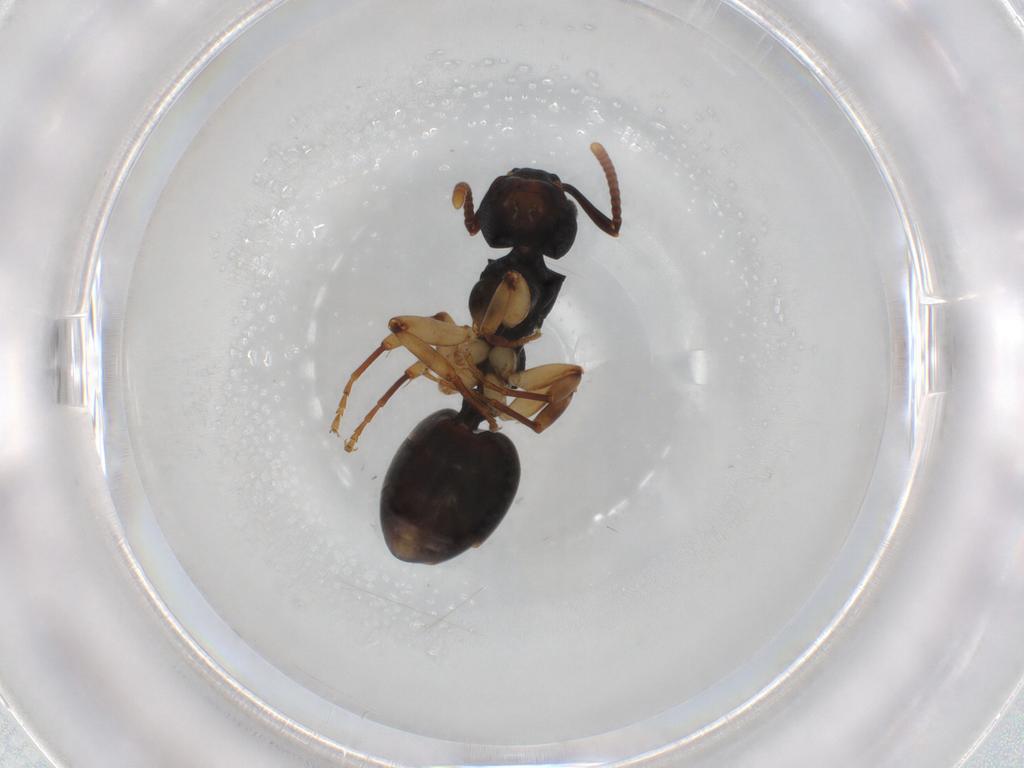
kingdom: Animalia
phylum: Arthropoda
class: Insecta
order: Hymenoptera
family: Formicidae
